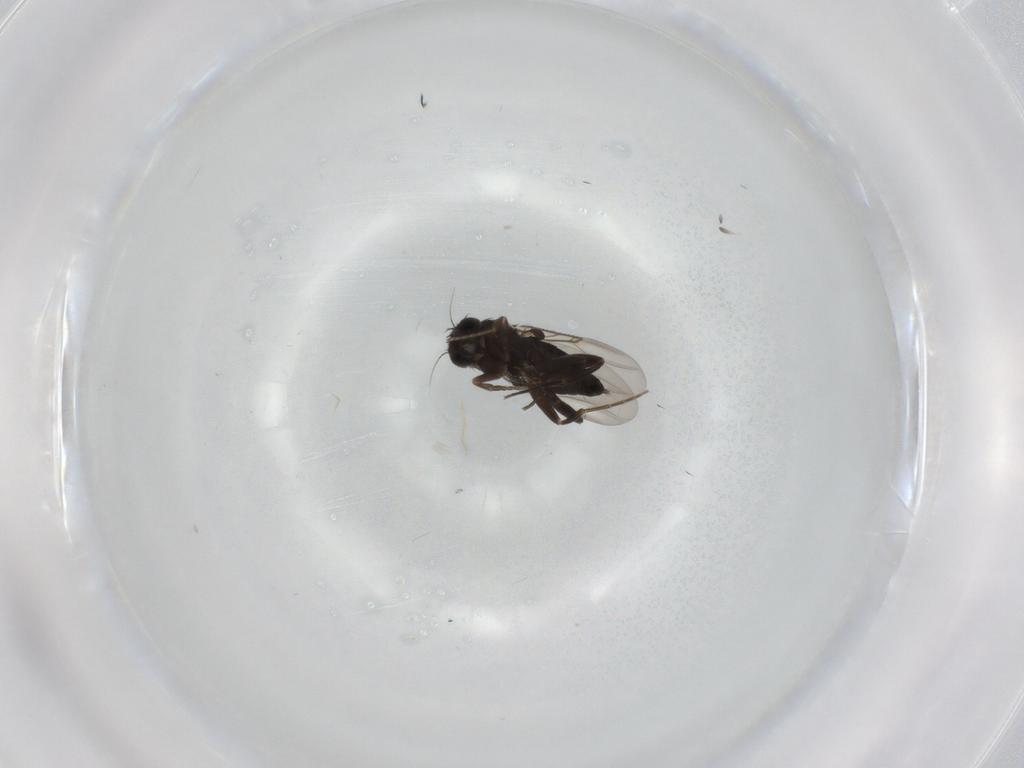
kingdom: Animalia
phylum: Arthropoda
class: Insecta
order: Diptera
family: Phoridae
